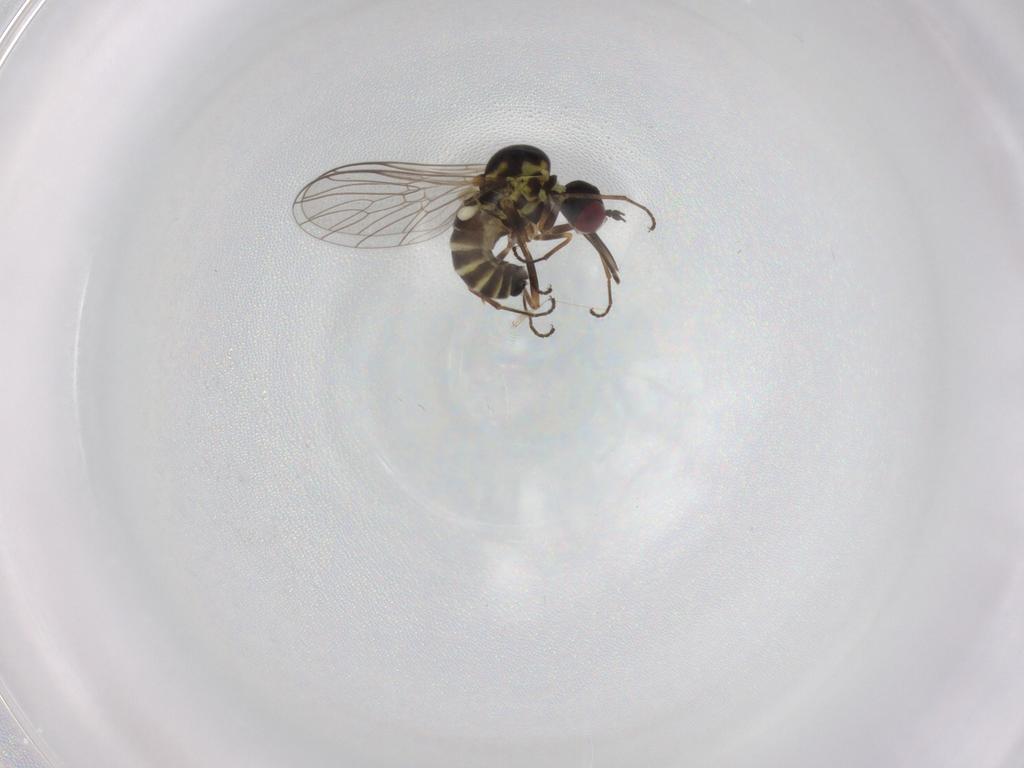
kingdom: Animalia
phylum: Arthropoda
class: Insecta
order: Diptera
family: Bombyliidae
